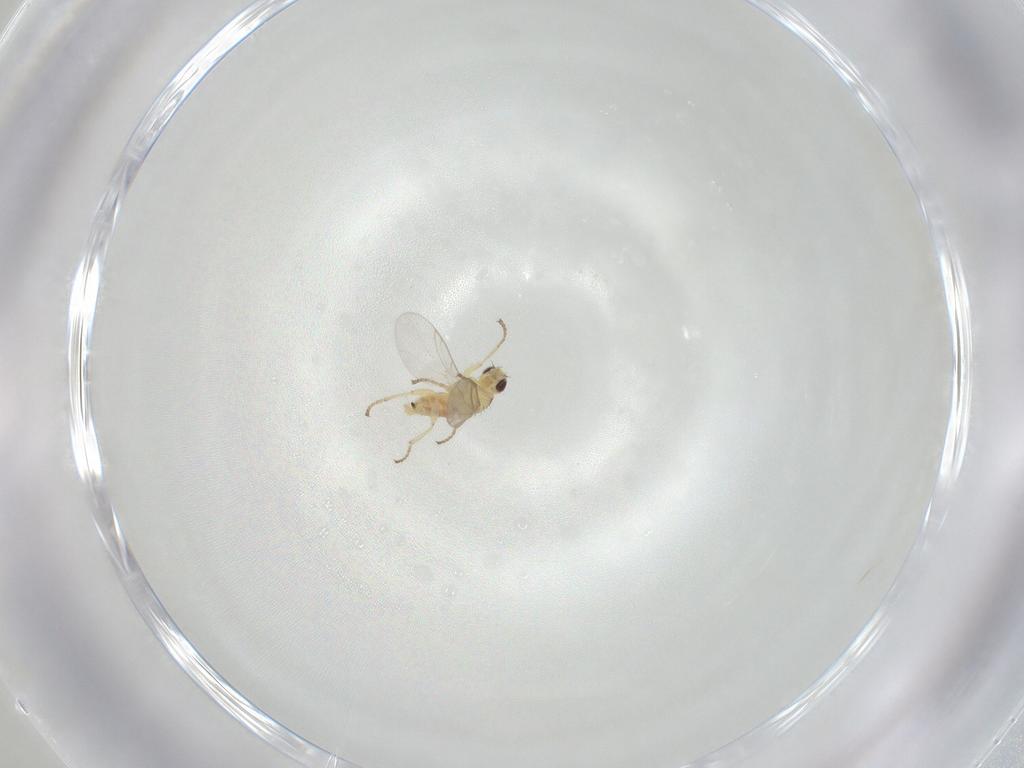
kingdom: Animalia
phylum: Arthropoda
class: Insecta
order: Diptera
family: Agromyzidae
